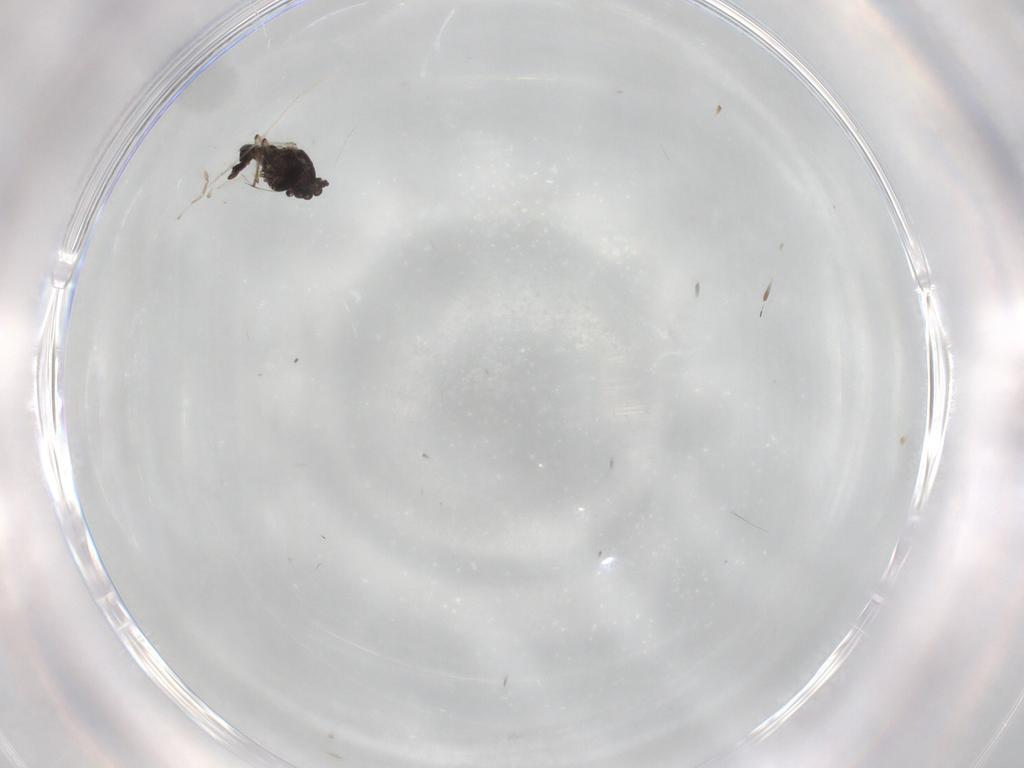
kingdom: Animalia
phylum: Arthropoda
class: Insecta
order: Diptera
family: Chironomidae
